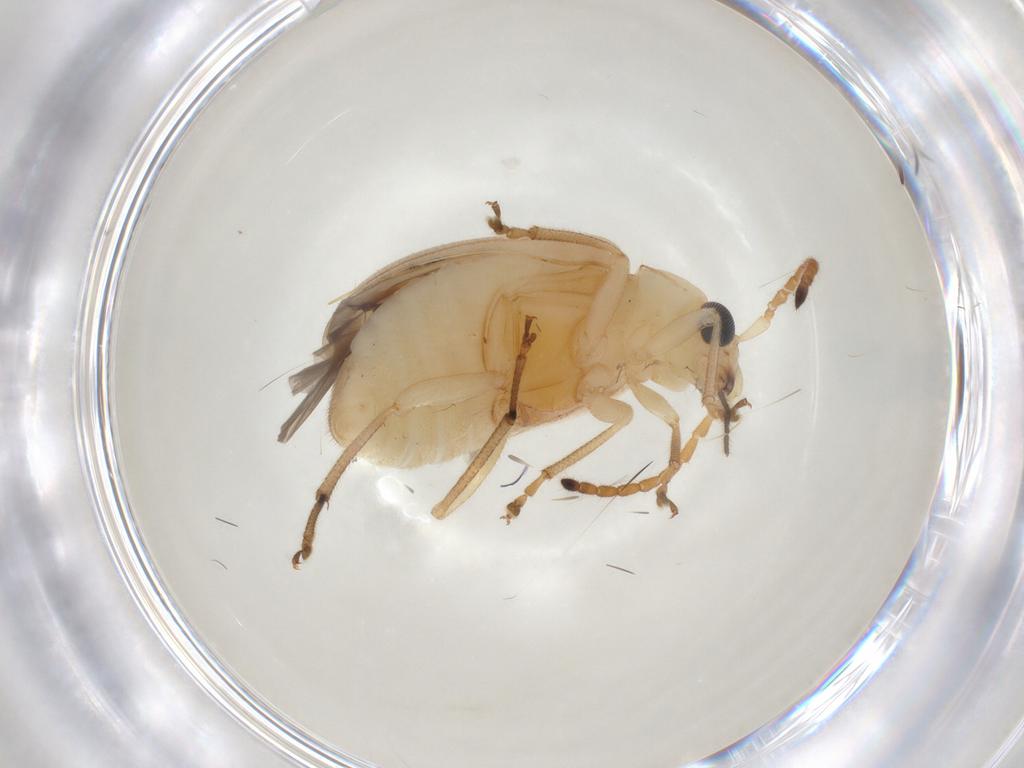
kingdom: Animalia
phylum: Arthropoda
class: Insecta
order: Coleoptera
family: Chrysomelidae
